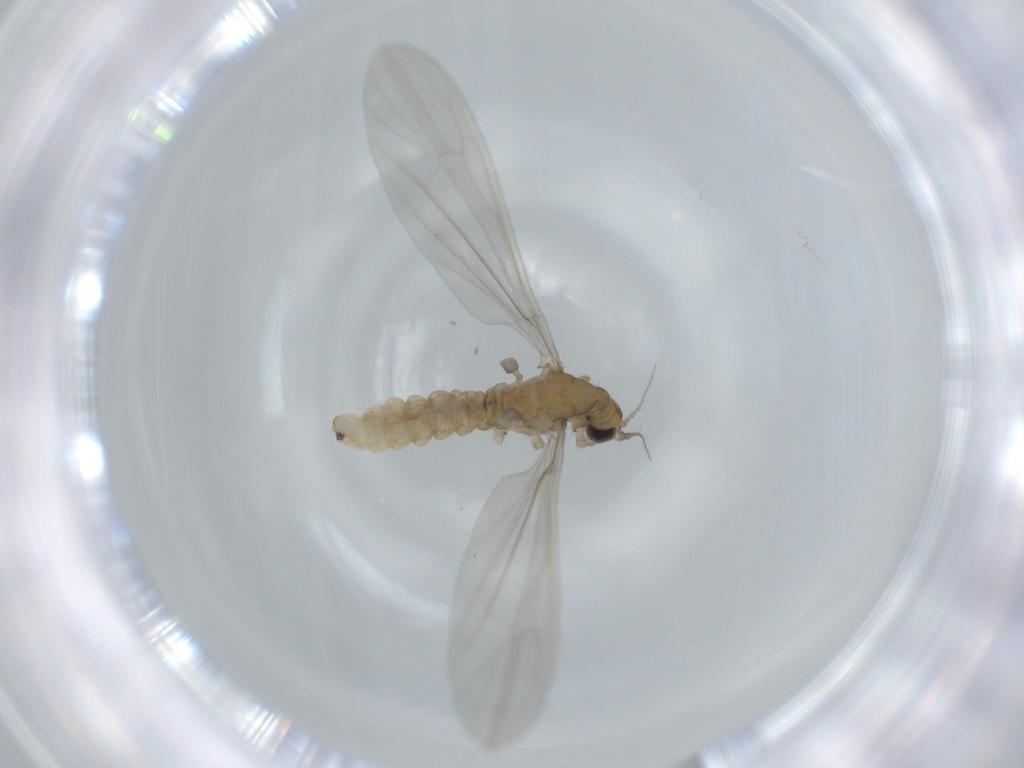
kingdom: Animalia
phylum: Arthropoda
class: Insecta
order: Diptera
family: Limoniidae
